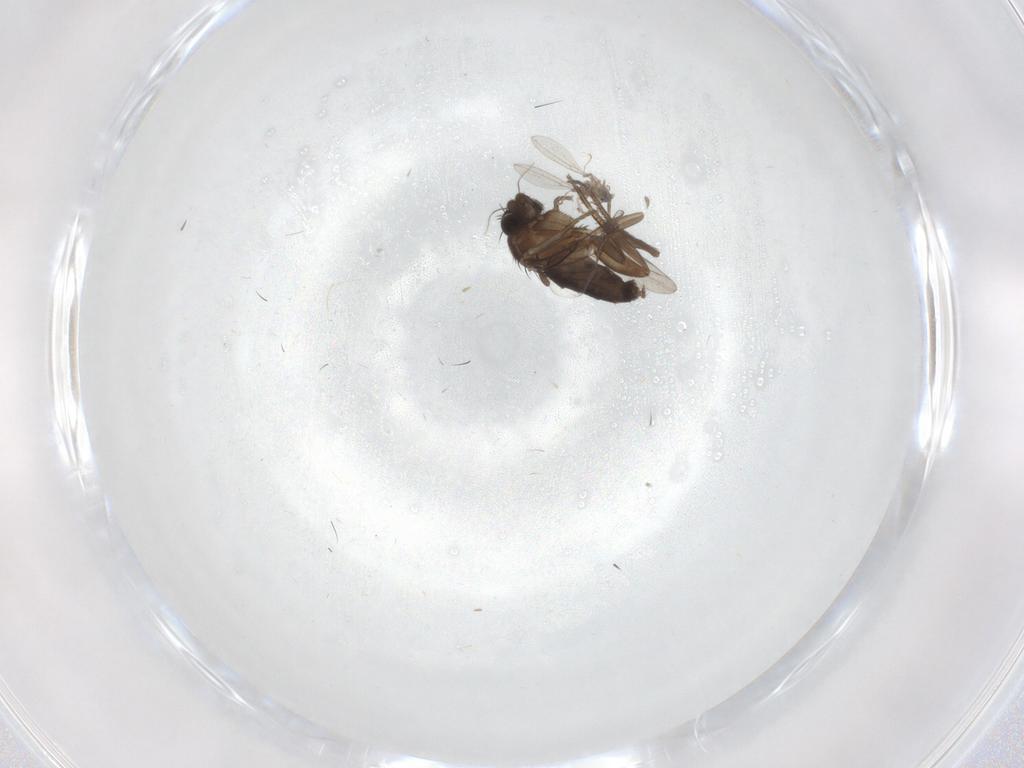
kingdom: Animalia
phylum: Arthropoda
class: Insecta
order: Diptera
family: Cecidomyiidae
